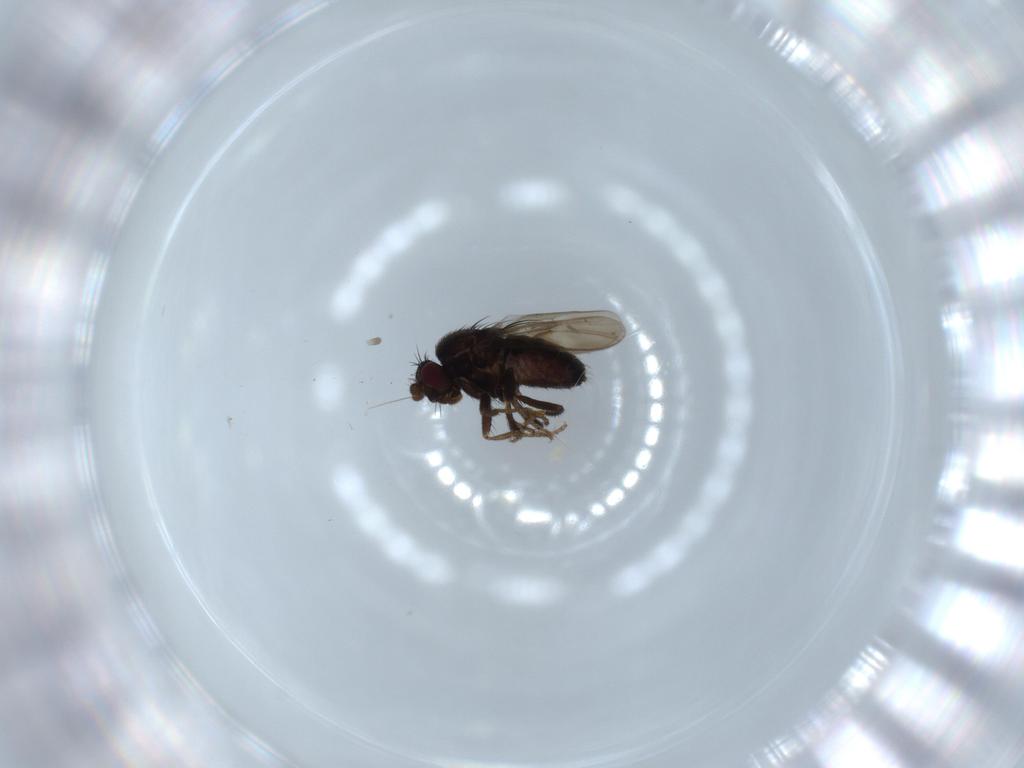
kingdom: Animalia
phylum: Arthropoda
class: Insecta
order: Diptera
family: Sphaeroceridae
